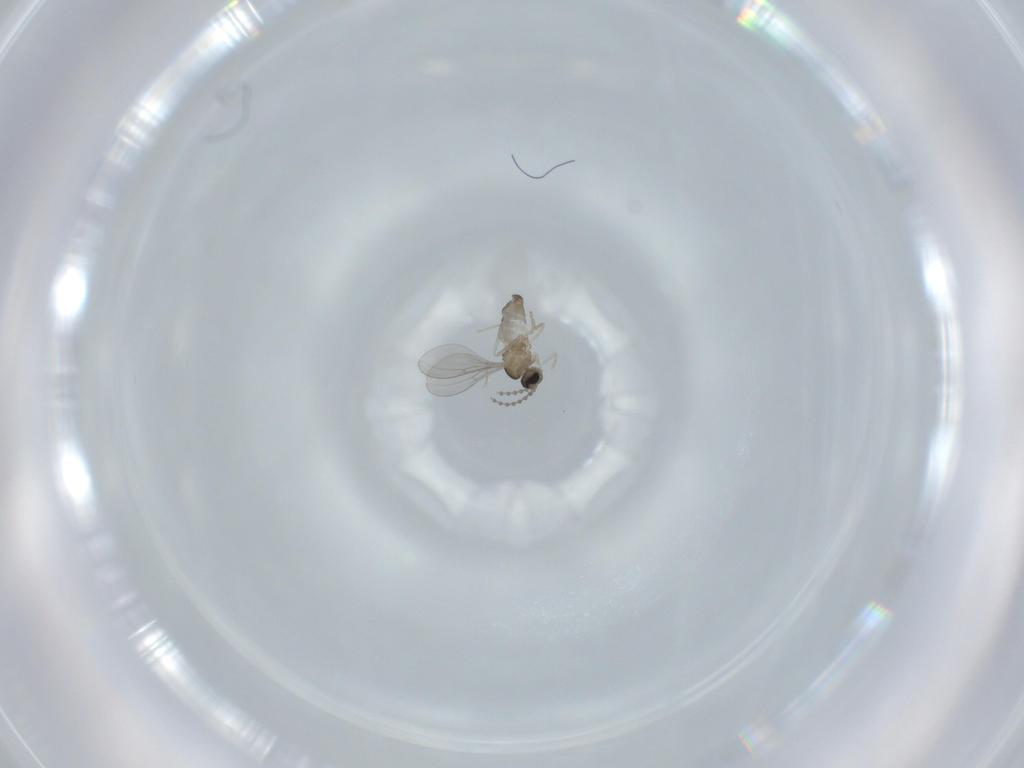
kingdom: Animalia
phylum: Arthropoda
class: Insecta
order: Diptera
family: Cecidomyiidae
